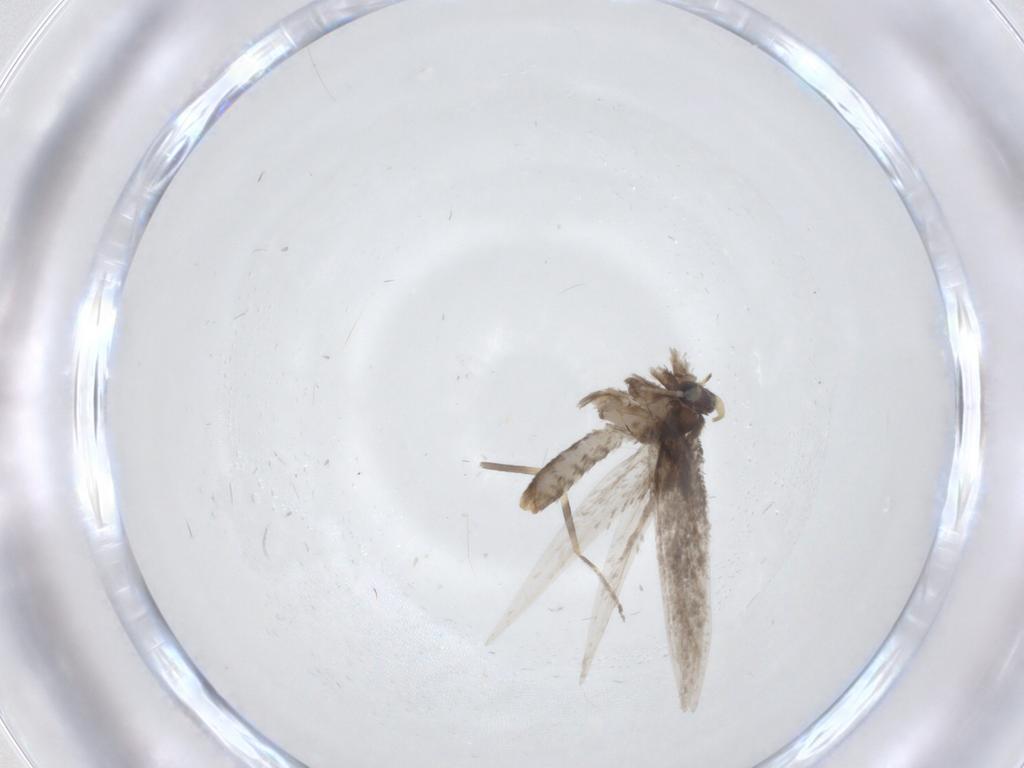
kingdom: Animalia
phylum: Arthropoda
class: Insecta
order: Lepidoptera
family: Nepticulidae
